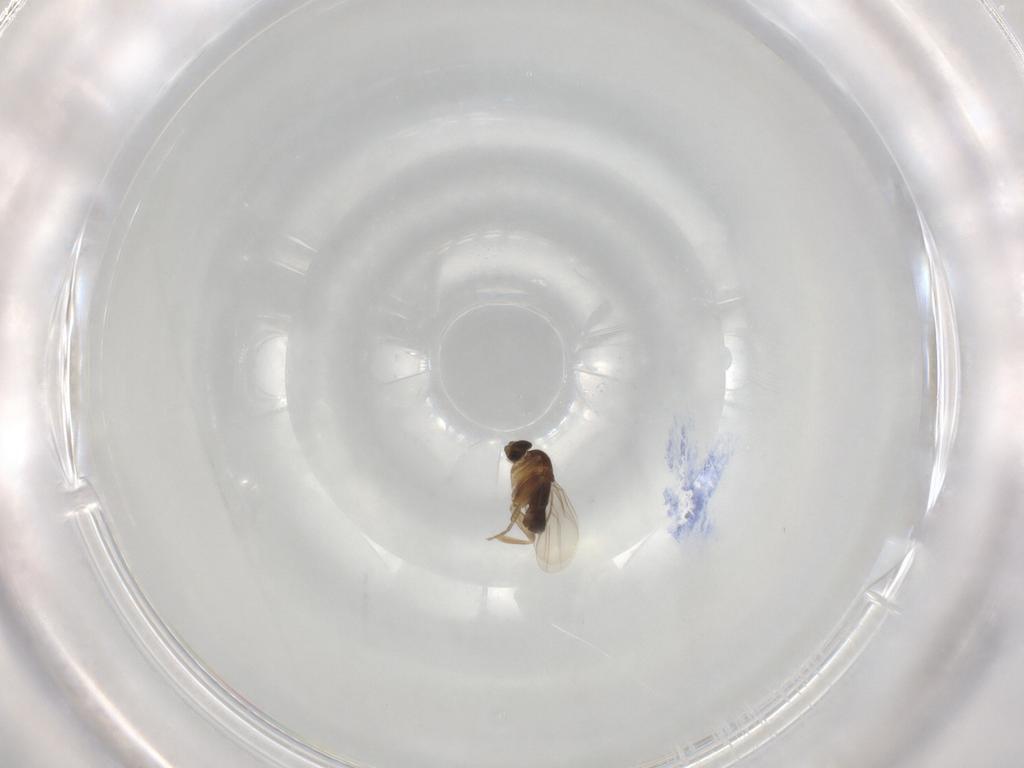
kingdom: Animalia
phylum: Arthropoda
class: Insecta
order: Diptera
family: Phoridae
